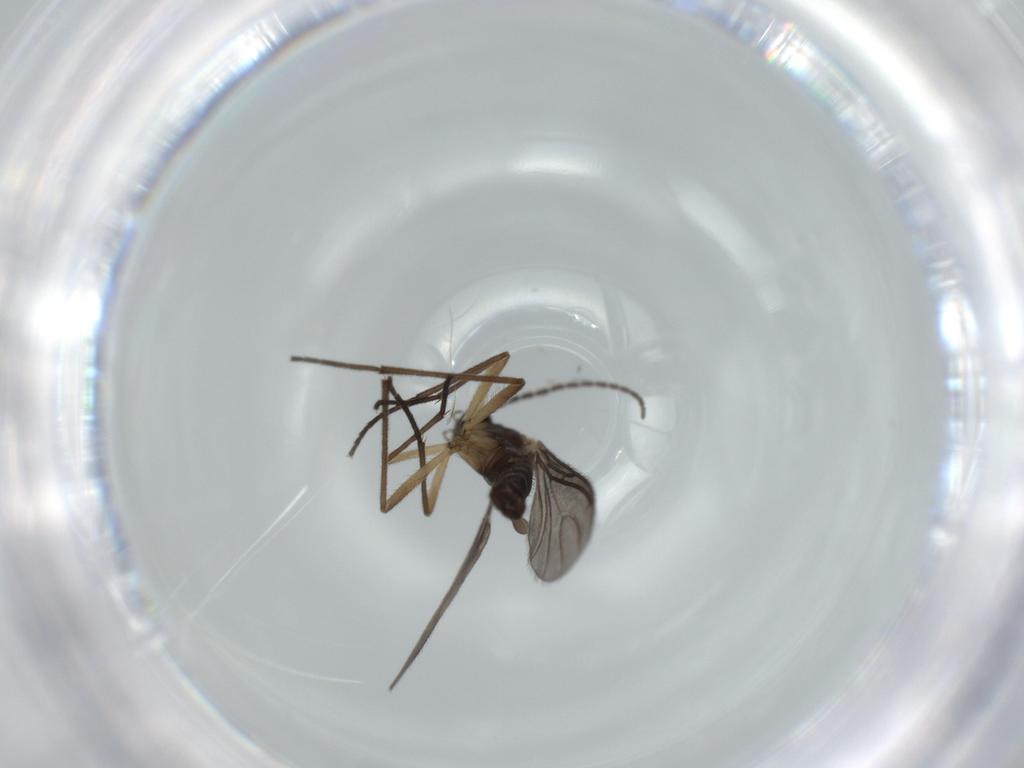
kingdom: Animalia
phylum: Arthropoda
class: Insecta
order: Diptera
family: Sciaridae
